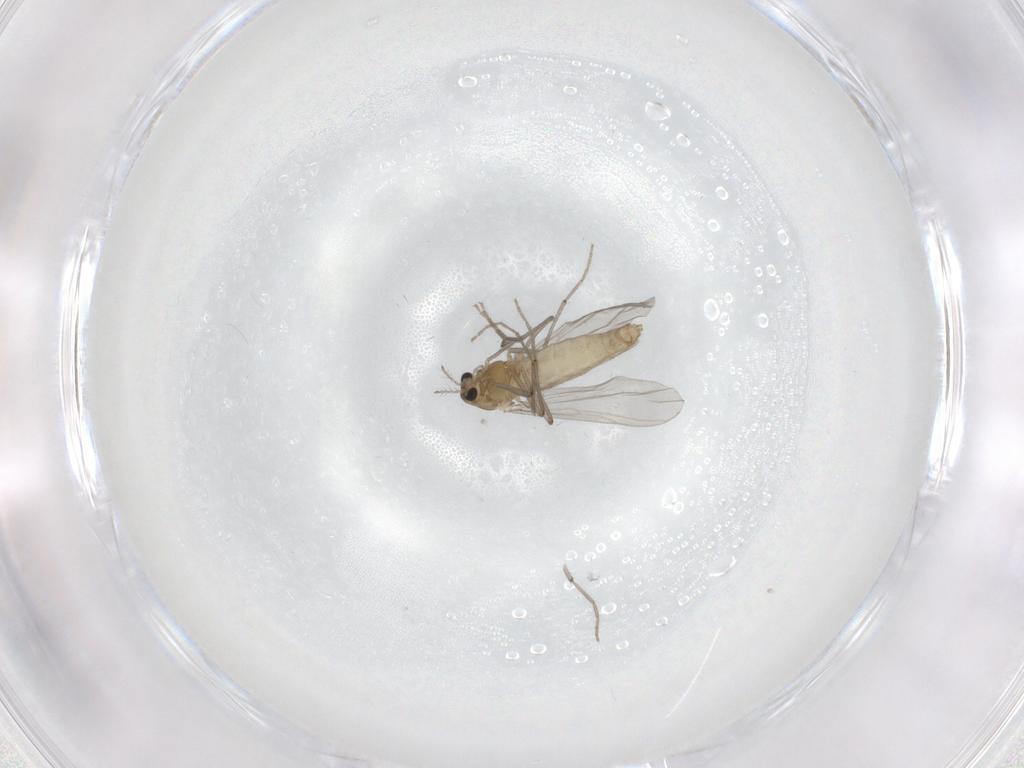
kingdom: Animalia
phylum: Arthropoda
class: Insecta
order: Diptera
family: Chironomidae
